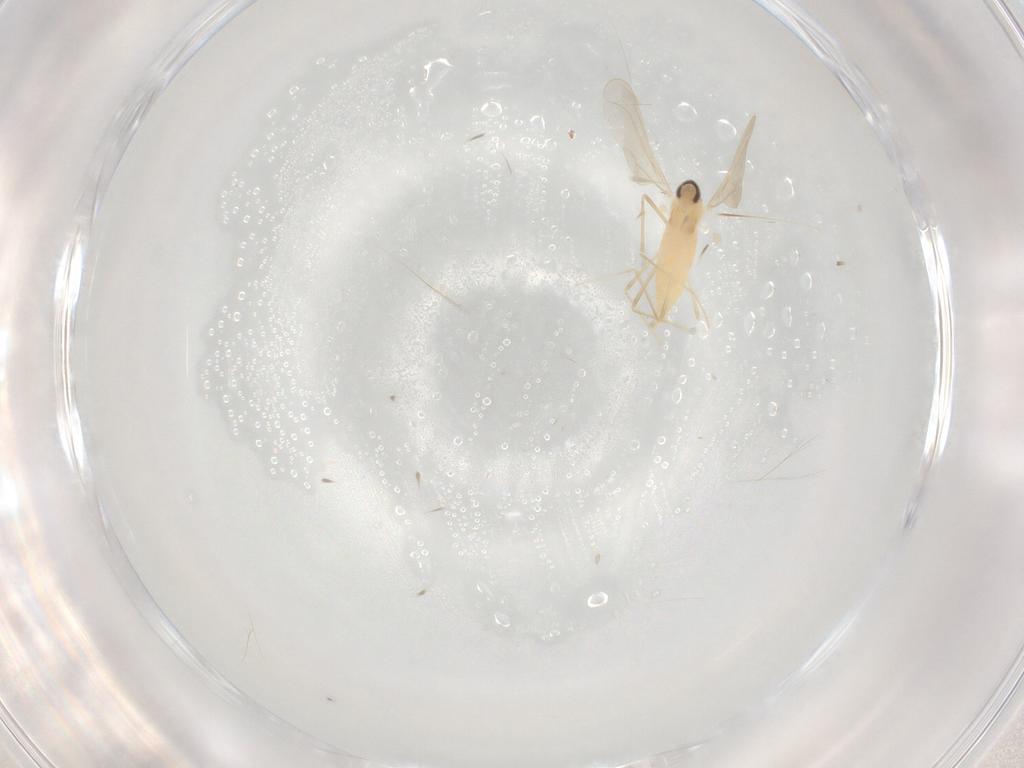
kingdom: Animalia
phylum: Arthropoda
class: Insecta
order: Diptera
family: Cecidomyiidae
